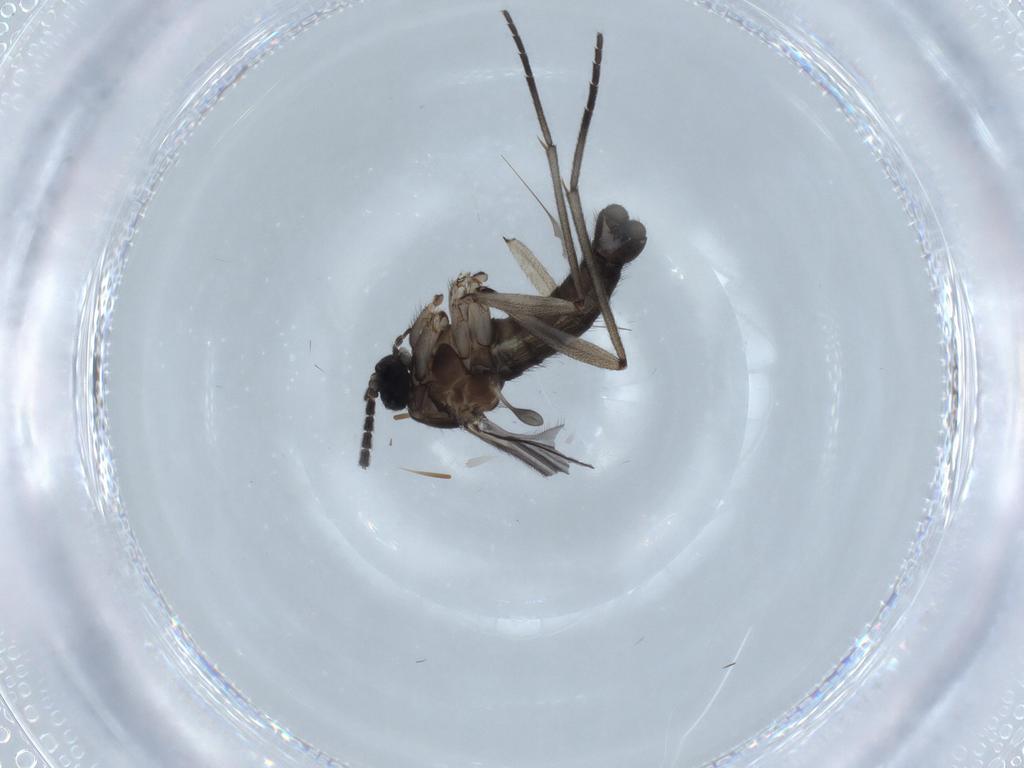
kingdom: Animalia
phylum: Arthropoda
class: Insecta
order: Diptera
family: Sciaridae
